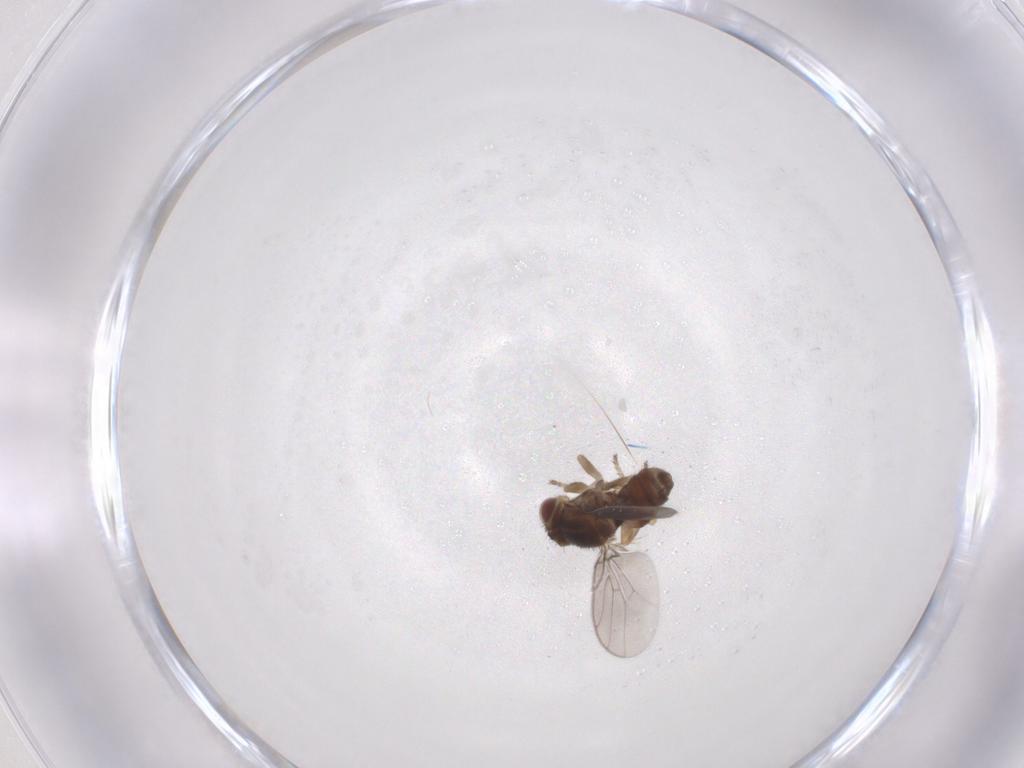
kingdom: Animalia
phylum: Arthropoda
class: Insecta
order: Diptera
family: Chloropidae
